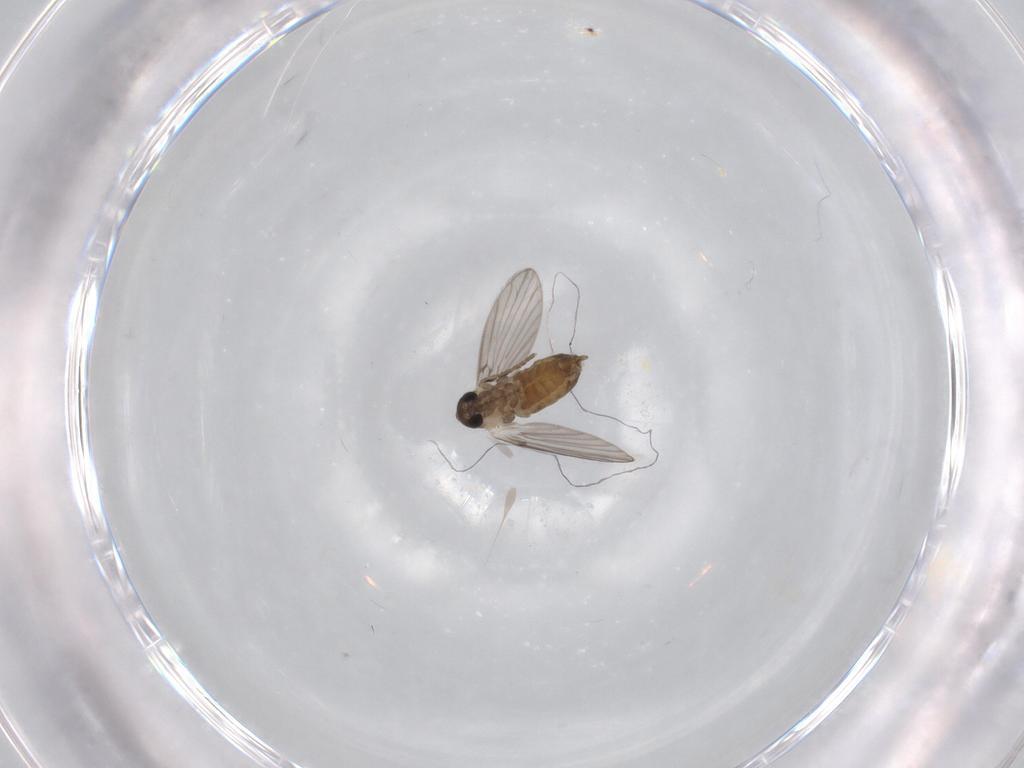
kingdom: Animalia
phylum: Arthropoda
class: Insecta
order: Diptera
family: Psychodidae
